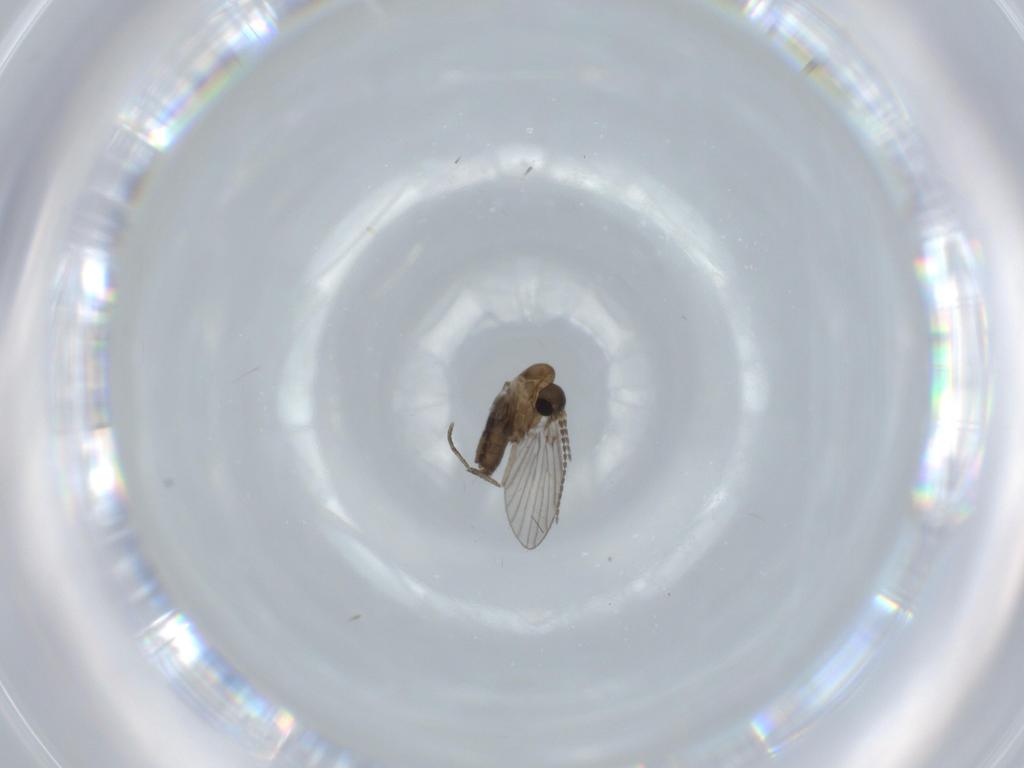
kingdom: Animalia
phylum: Arthropoda
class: Insecta
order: Diptera
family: Psychodidae
